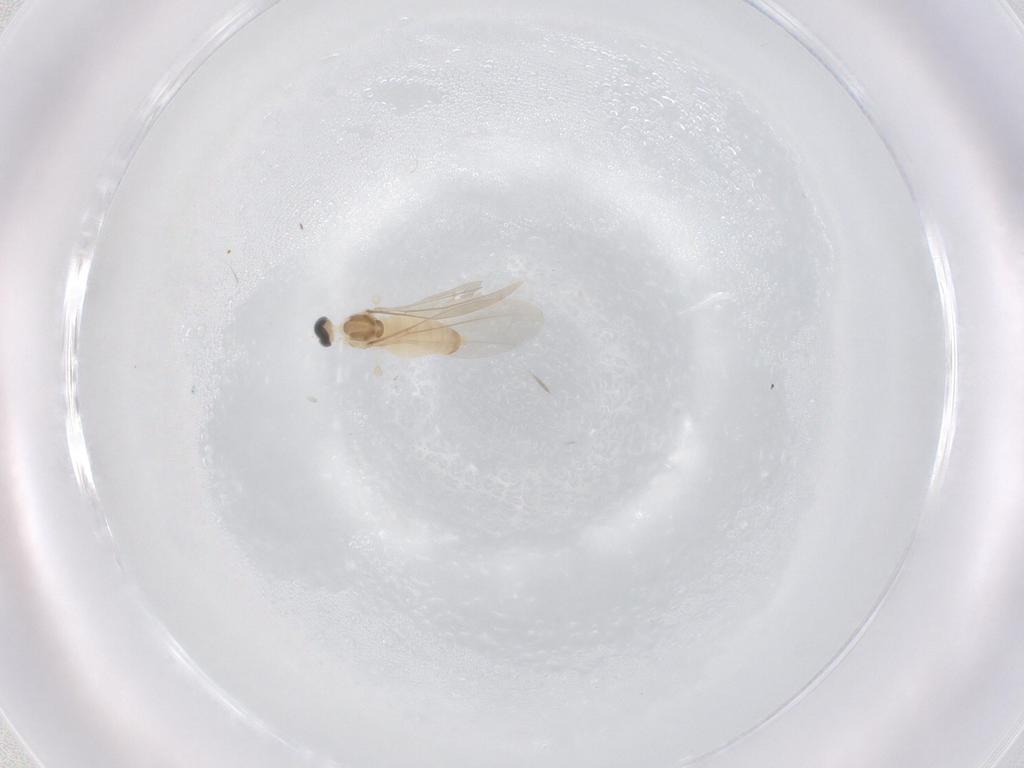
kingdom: Animalia
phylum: Arthropoda
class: Insecta
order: Diptera
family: Cecidomyiidae
